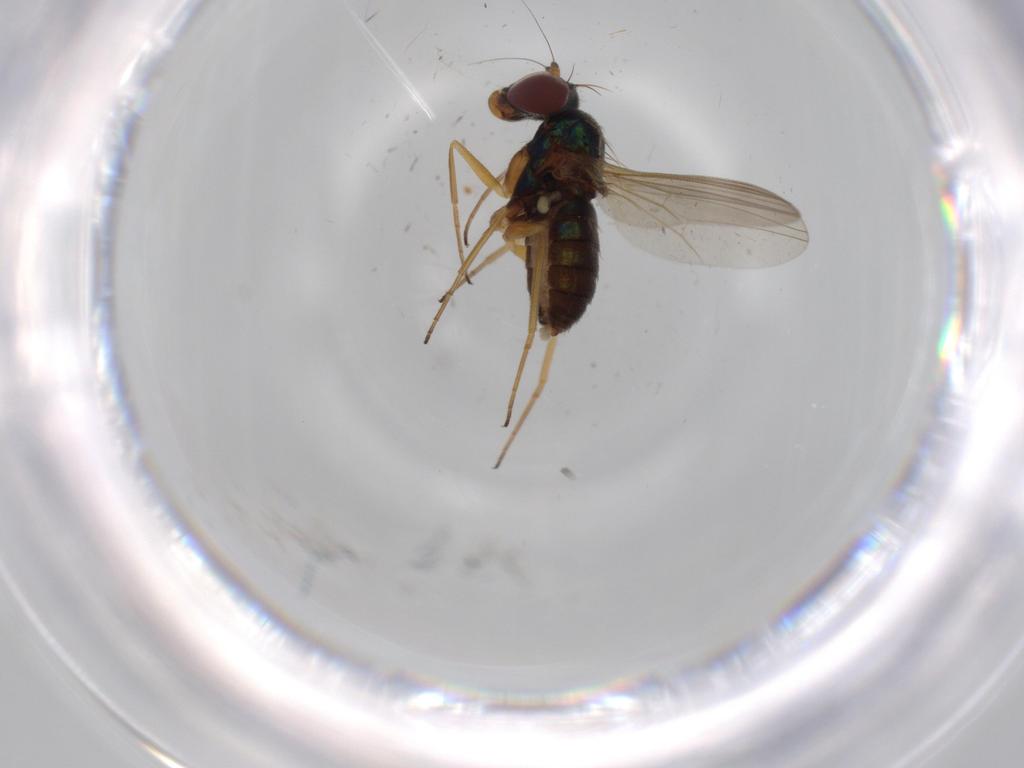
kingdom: Animalia
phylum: Arthropoda
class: Insecta
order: Diptera
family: Dolichopodidae
